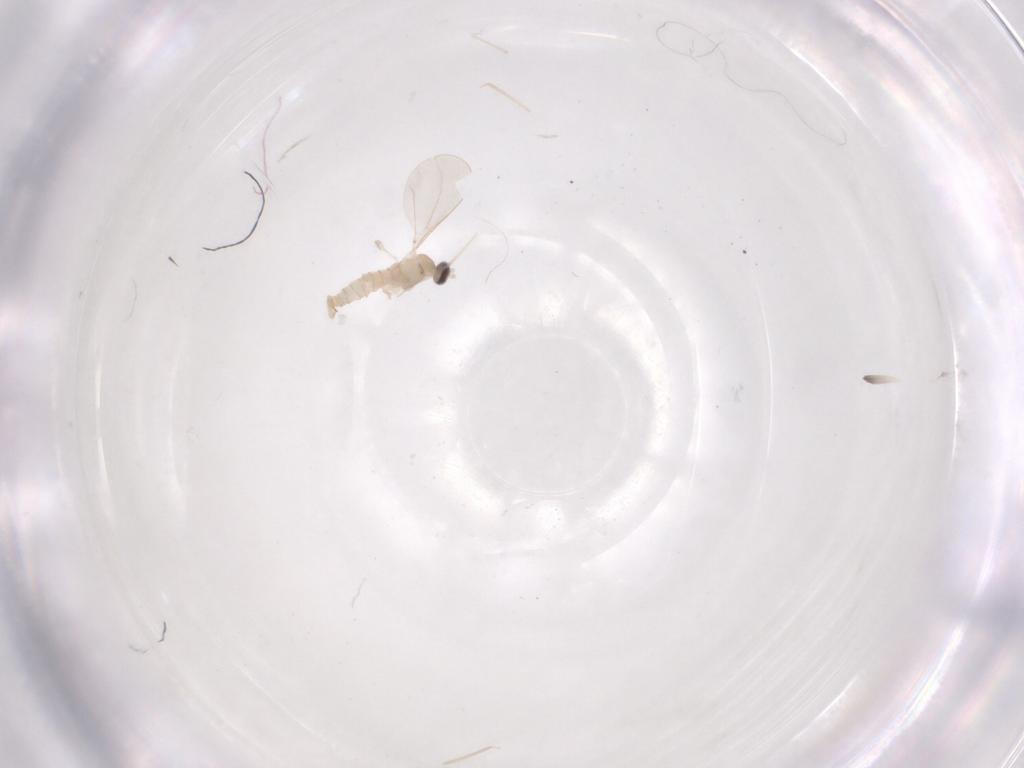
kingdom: Animalia
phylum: Arthropoda
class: Insecta
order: Diptera
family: Cecidomyiidae
